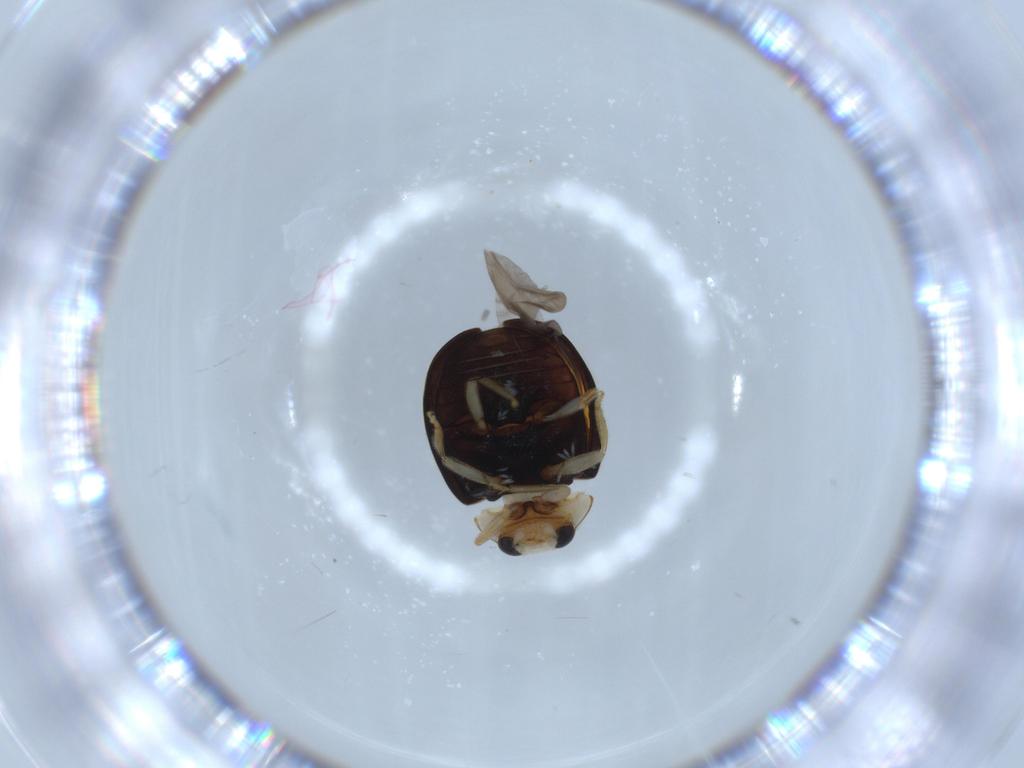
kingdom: Animalia
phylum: Arthropoda
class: Insecta
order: Coleoptera
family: Coccinellidae
